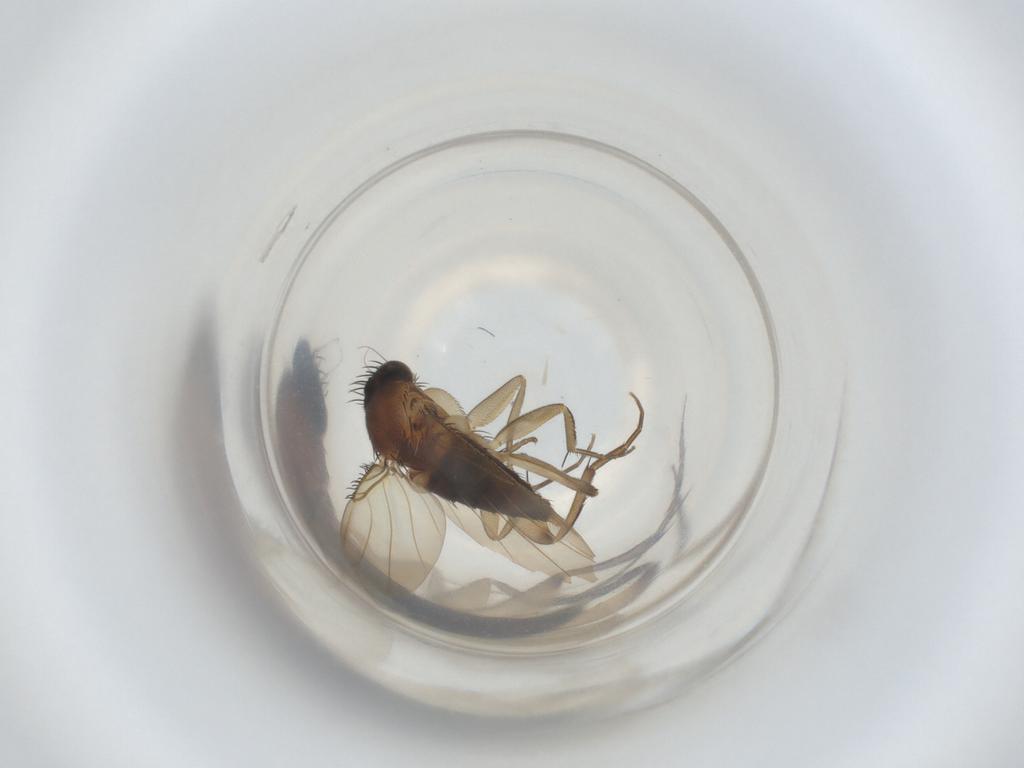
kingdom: Animalia
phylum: Arthropoda
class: Insecta
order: Diptera
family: Phoridae
